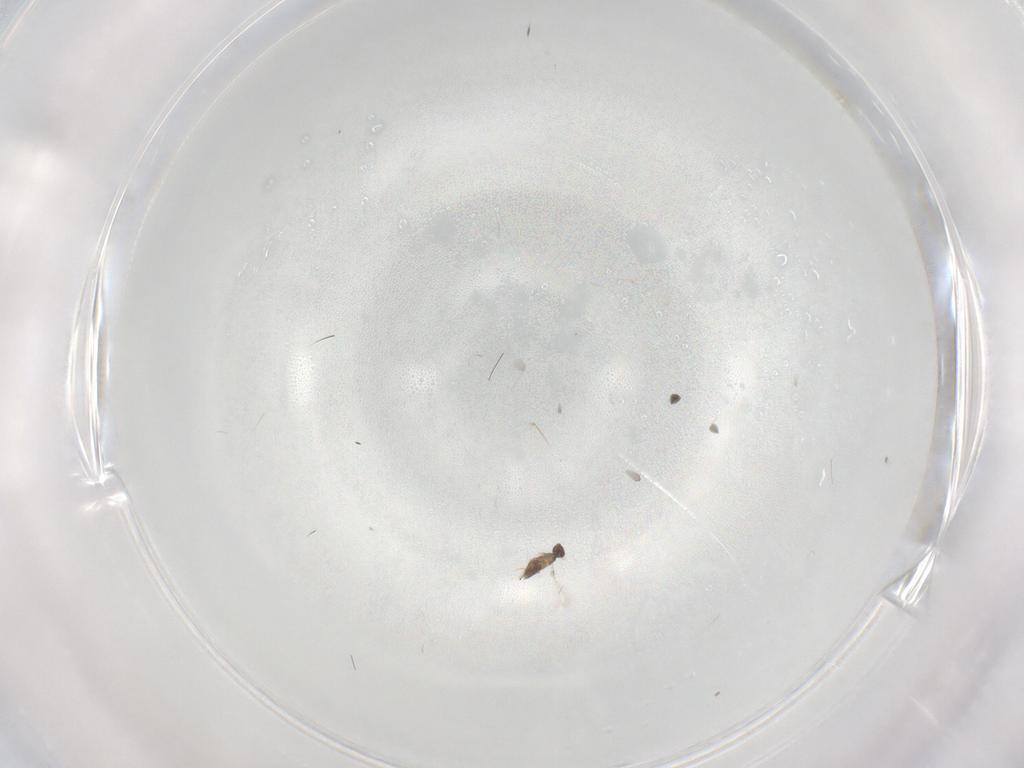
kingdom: Animalia
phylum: Arthropoda
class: Insecta
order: Hymenoptera
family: Mymaridae
